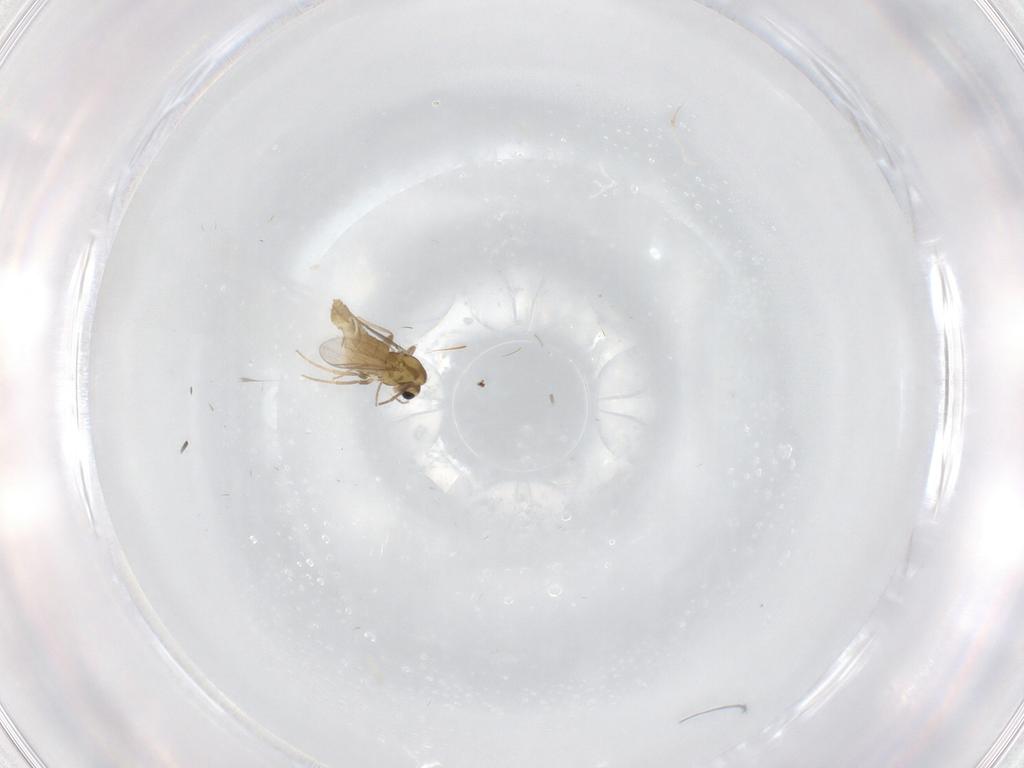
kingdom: Animalia
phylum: Arthropoda
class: Insecta
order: Diptera
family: Chironomidae
